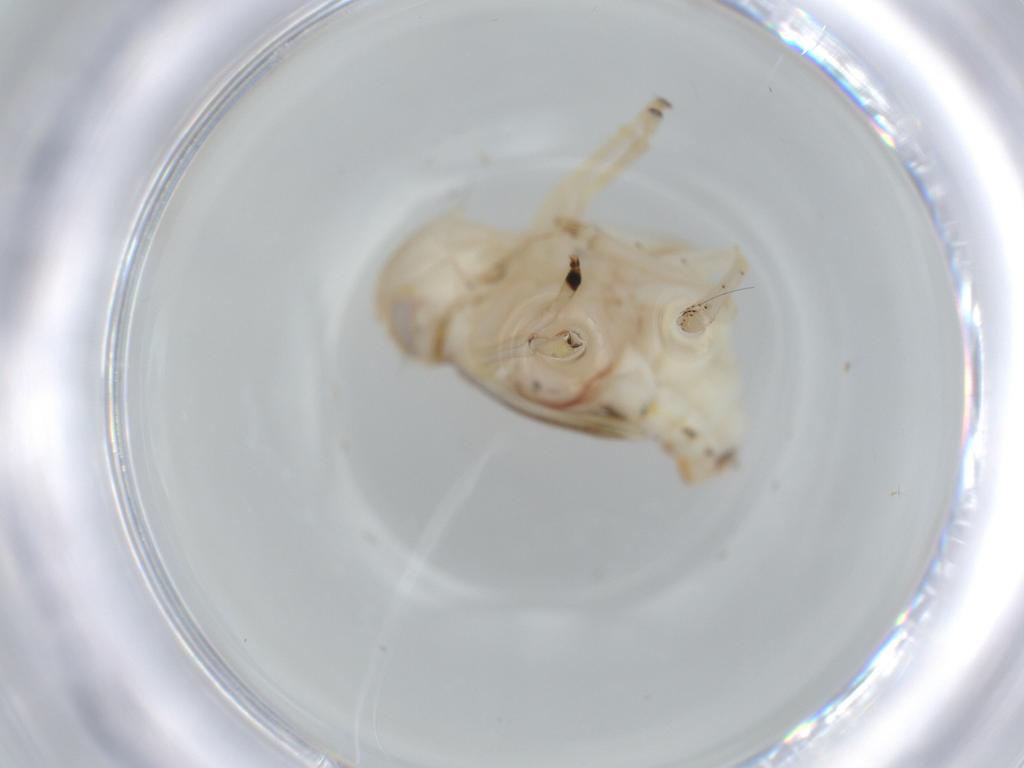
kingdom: Animalia
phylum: Arthropoda
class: Insecta
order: Hemiptera
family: Nogodinidae
